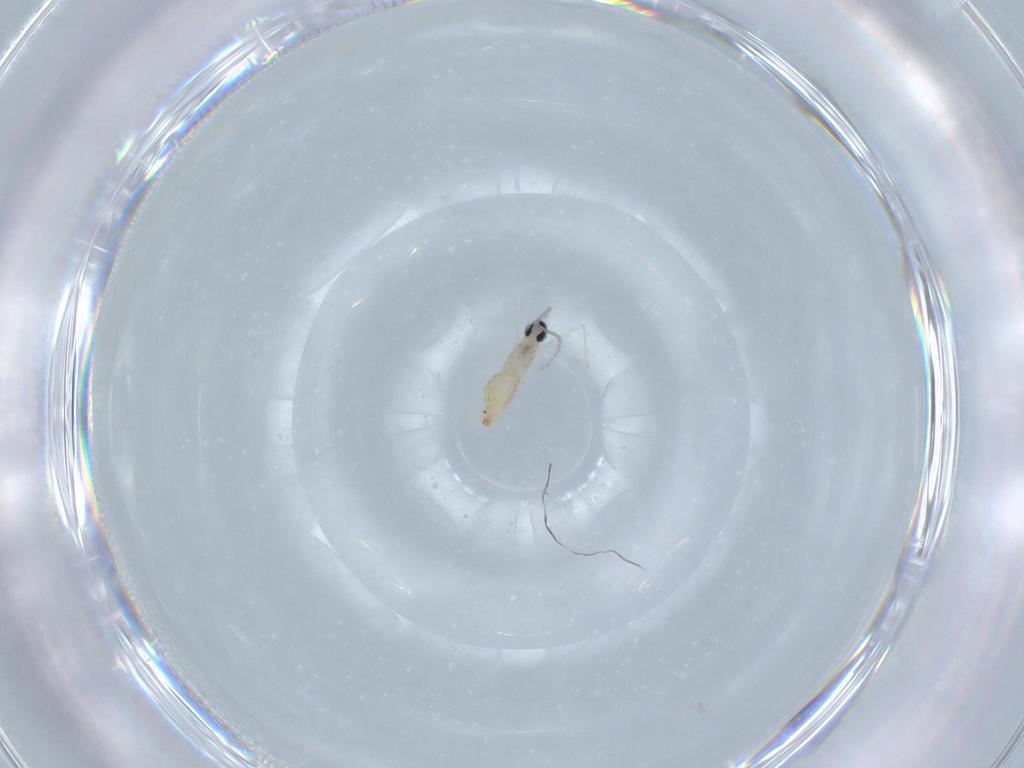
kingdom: Animalia
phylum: Arthropoda
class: Insecta
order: Diptera
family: Cecidomyiidae
